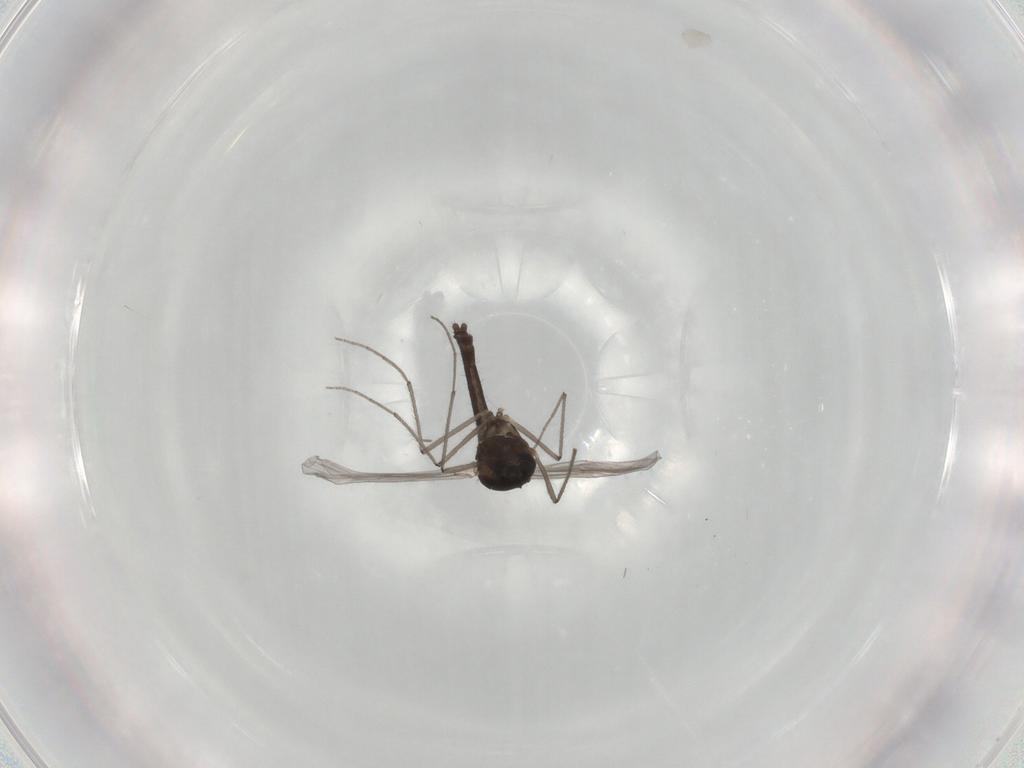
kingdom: Animalia
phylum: Arthropoda
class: Insecta
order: Diptera
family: Chironomidae
